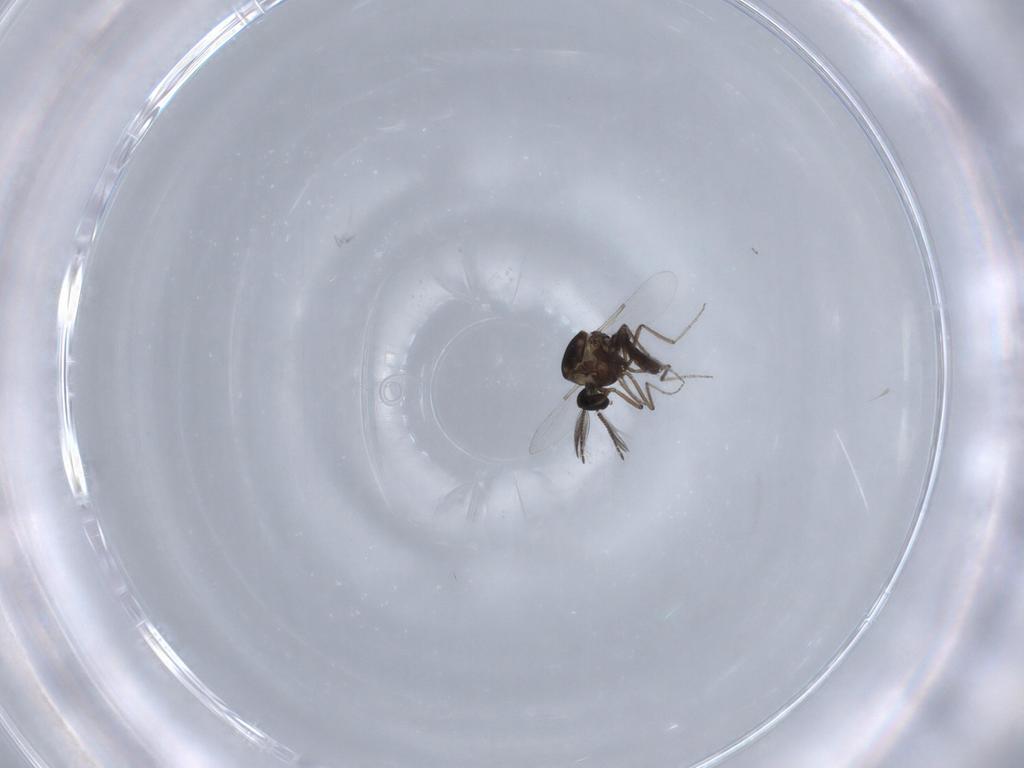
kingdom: Animalia
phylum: Arthropoda
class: Insecta
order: Diptera
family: Ceratopogonidae
